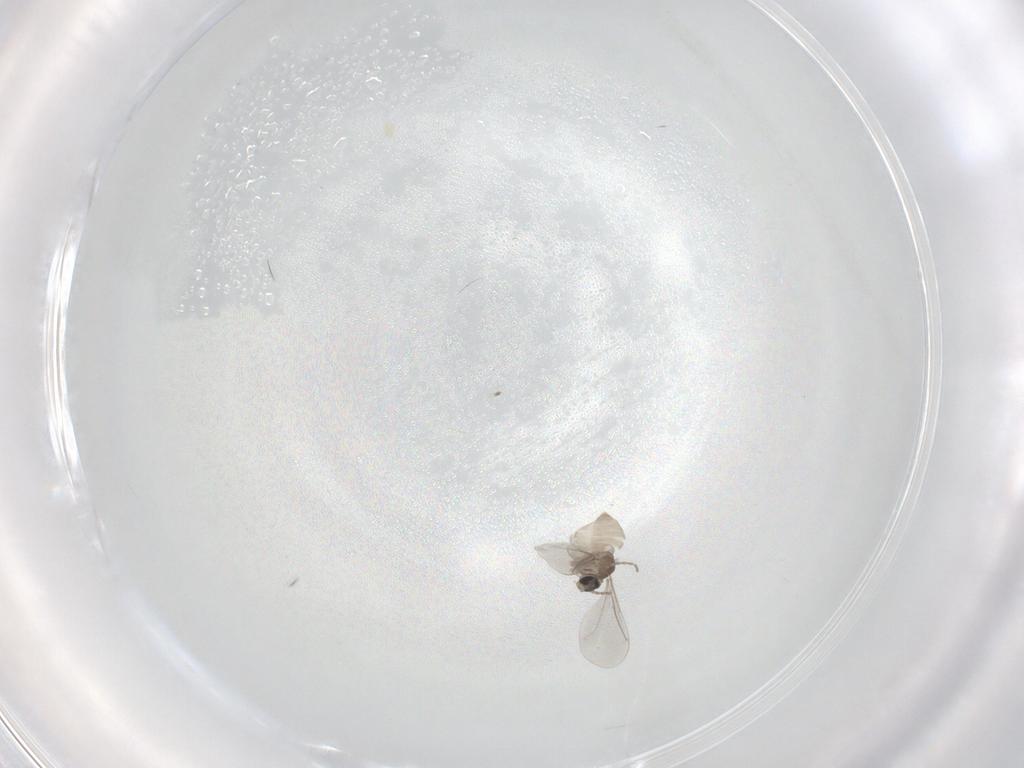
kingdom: Animalia
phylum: Arthropoda
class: Insecta
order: Diptera
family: Cecidomyiidae
